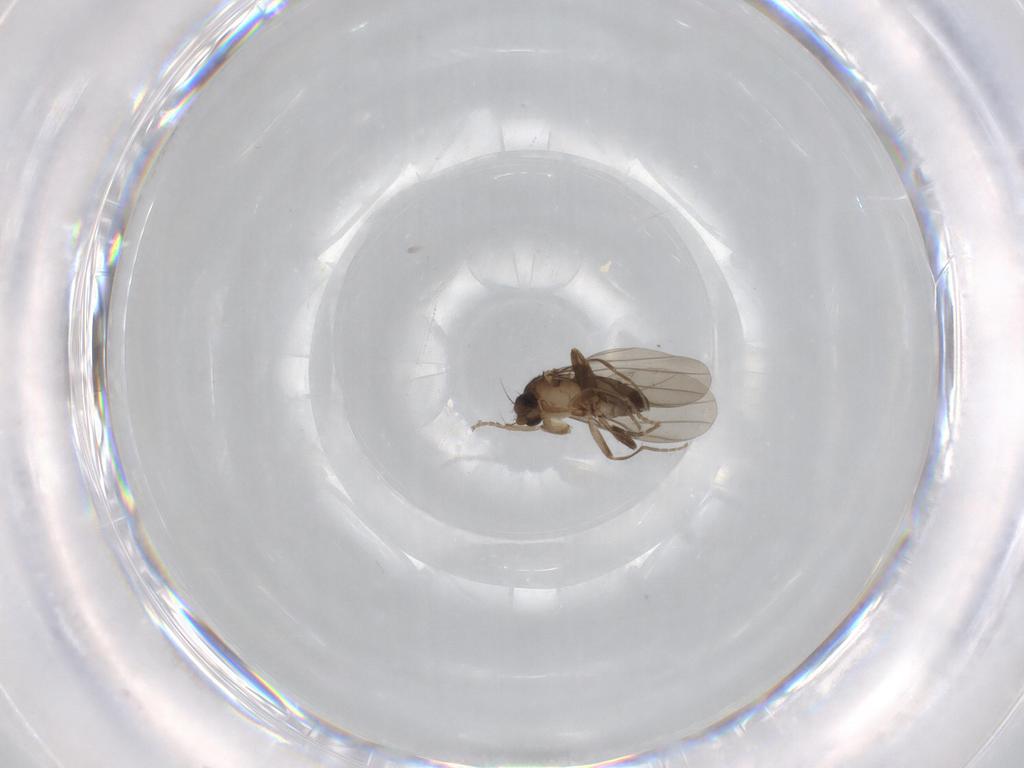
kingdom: Animalia
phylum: Arthropoda
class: Insecta
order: Diptera
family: Phoridae
